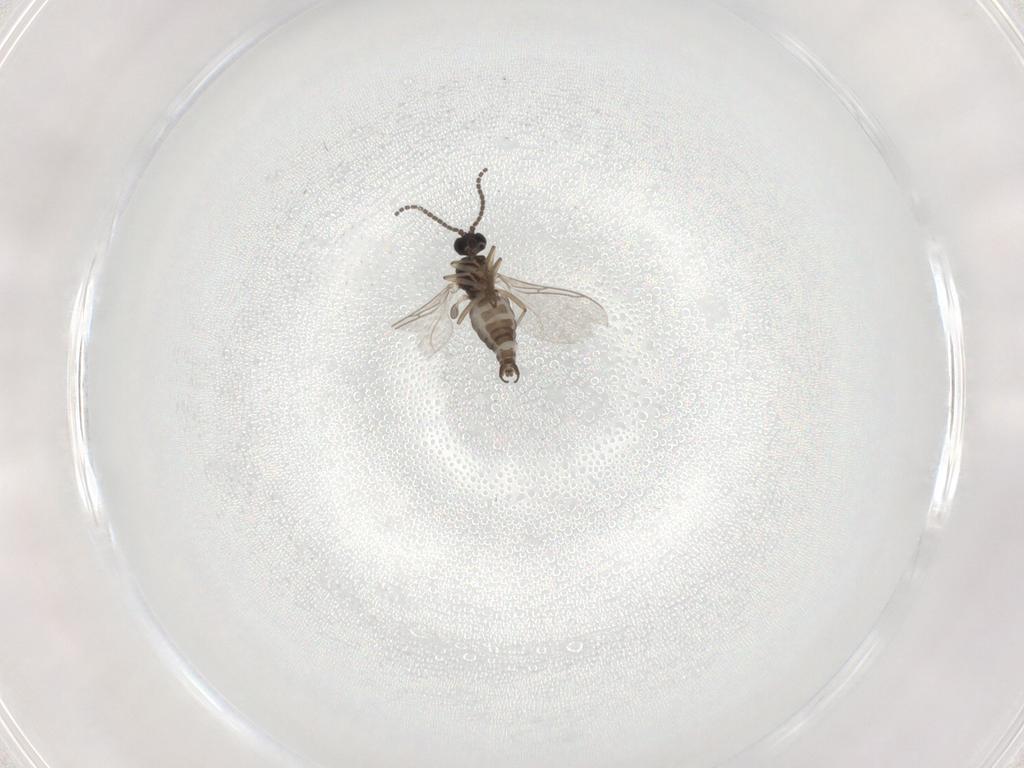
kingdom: Animalia
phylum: Arthropoda
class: Insecta
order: Diptera
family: Sciaridae
